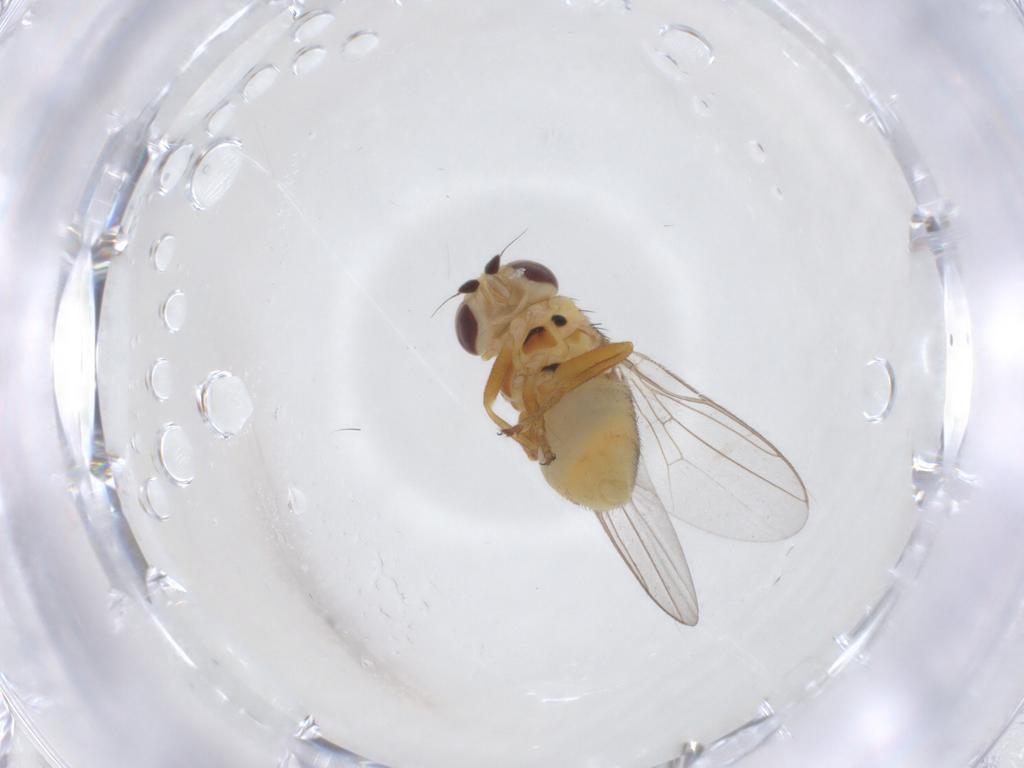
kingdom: Animalia
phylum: Arthropoda
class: Insecta
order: Diptera
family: Chloropidae
